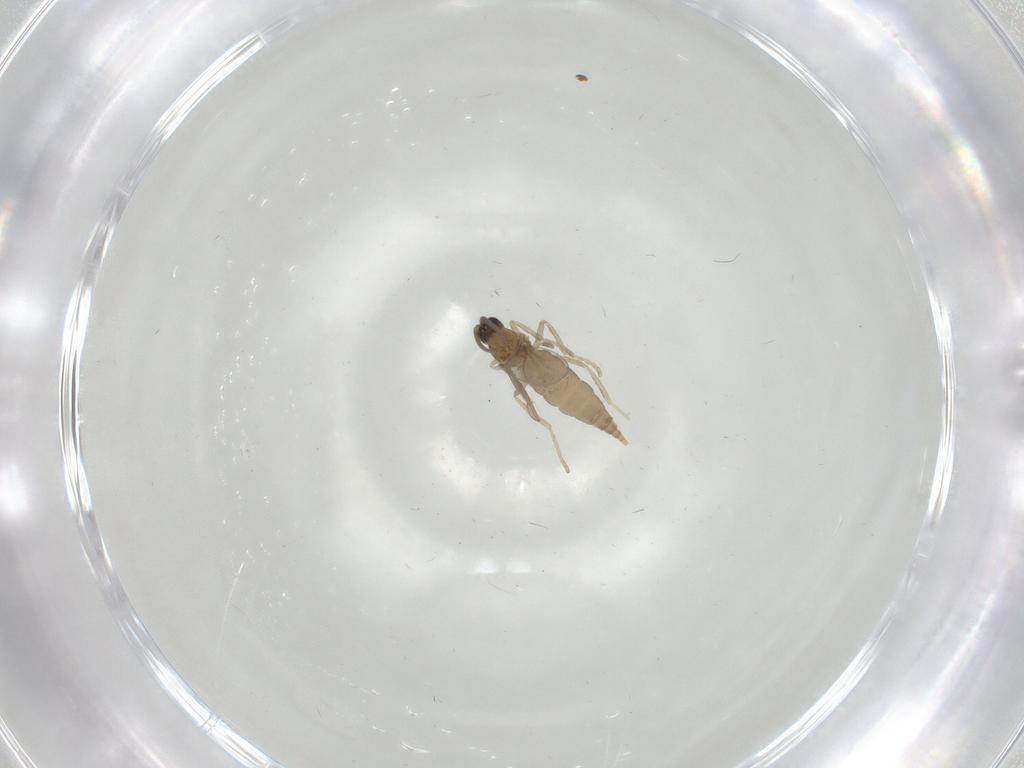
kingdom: Animalia
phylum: Arthropoda
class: Insecta
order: Diptera
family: Cecidomyiidae
